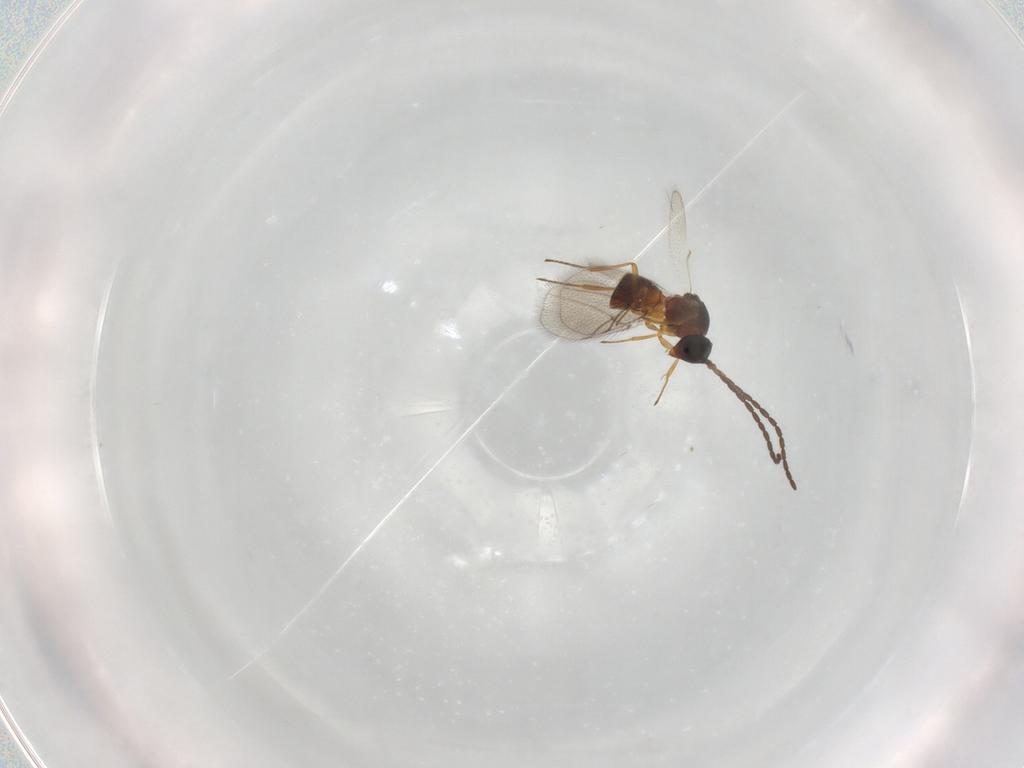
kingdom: Animalia
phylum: Arthropoda
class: Insecta
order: Hymenoptera
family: Figitidae
